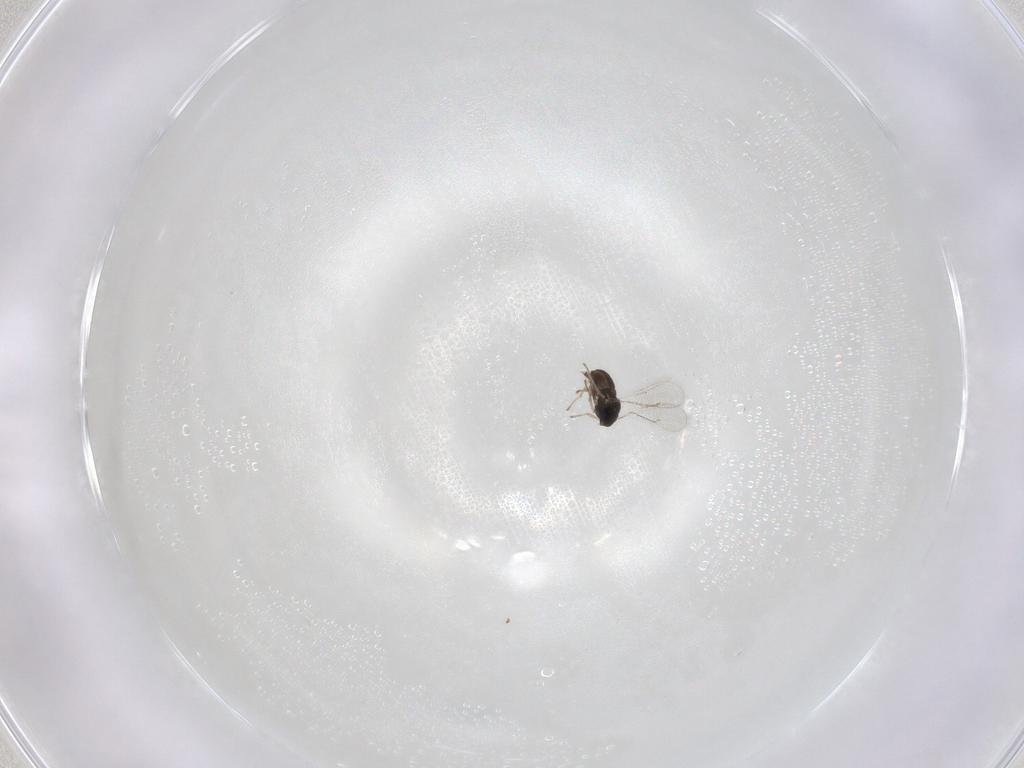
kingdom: Animalia
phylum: Arthropoda
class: Insecta
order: Hymenoptera
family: Eulophidae
